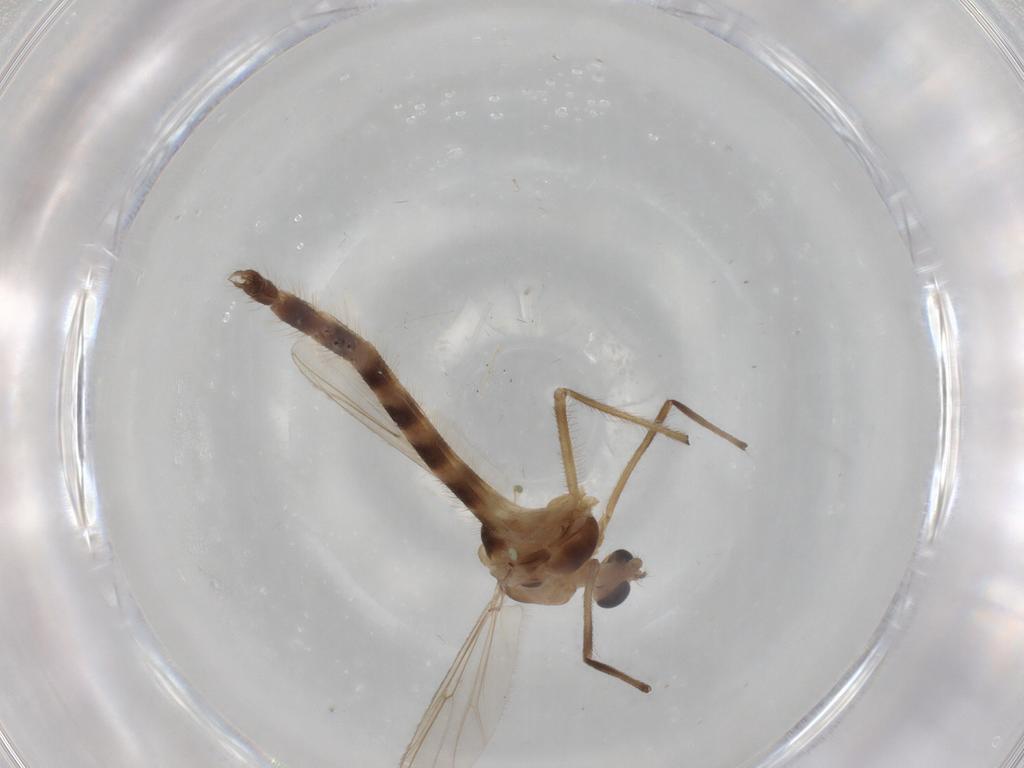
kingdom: Animalia
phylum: Arthropoda
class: Insecta
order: Diptera
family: Chironomidae
